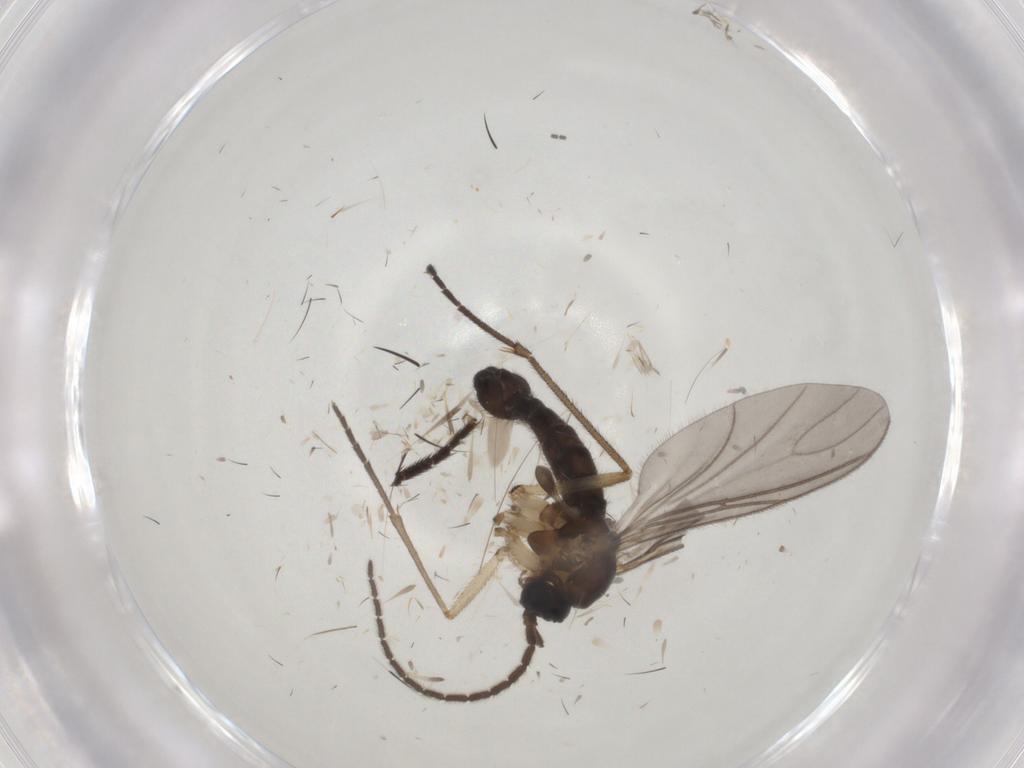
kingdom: Animalia
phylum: Arthropoda
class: Insecta
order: Diptera
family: Sciaridae
